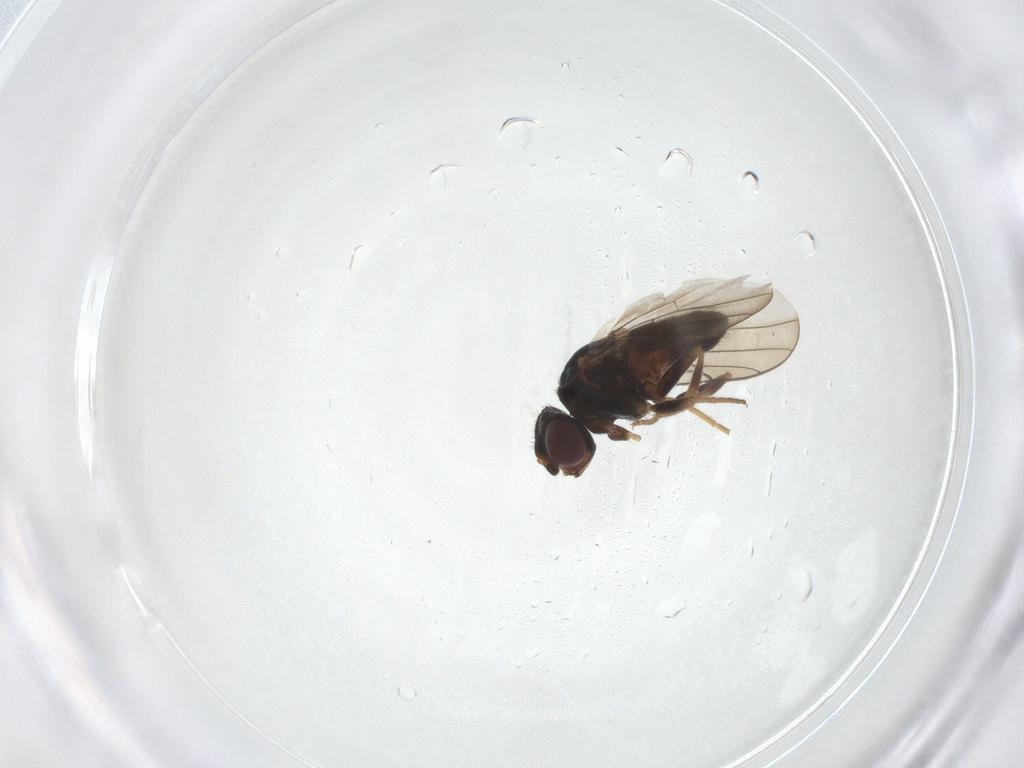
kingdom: Animalia
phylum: Arthropoda
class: Insecta
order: Diptera
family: Chloropidae
